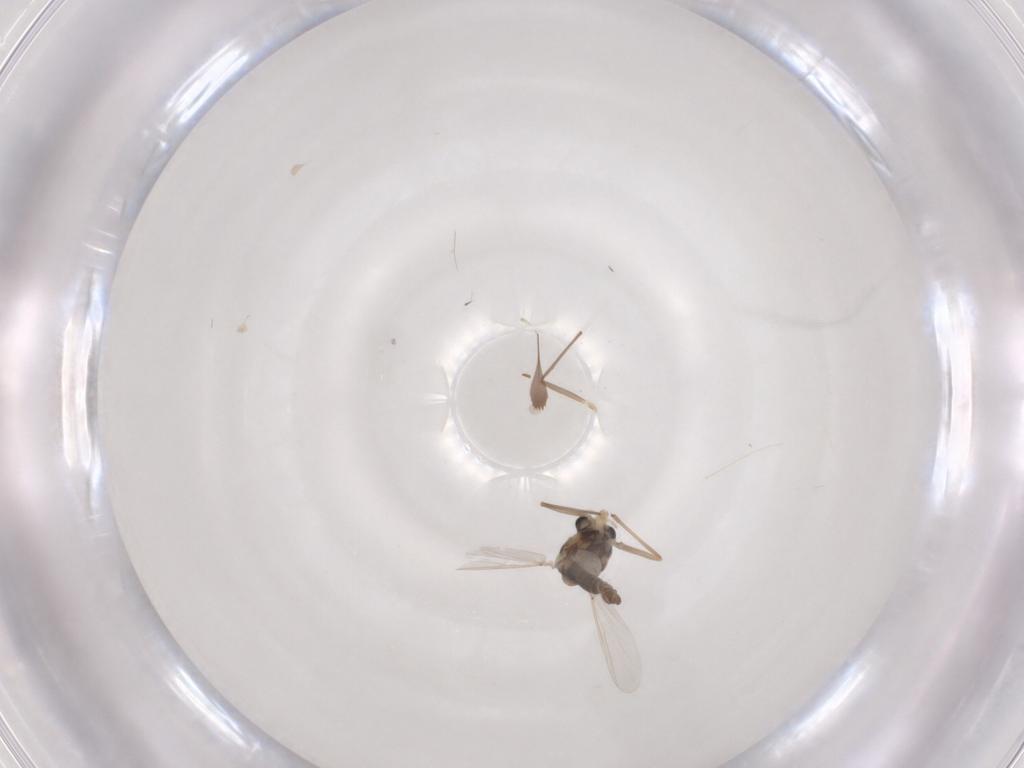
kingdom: Animalia
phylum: Arthropoda
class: Insecta
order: Diptera
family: Chironomidae
